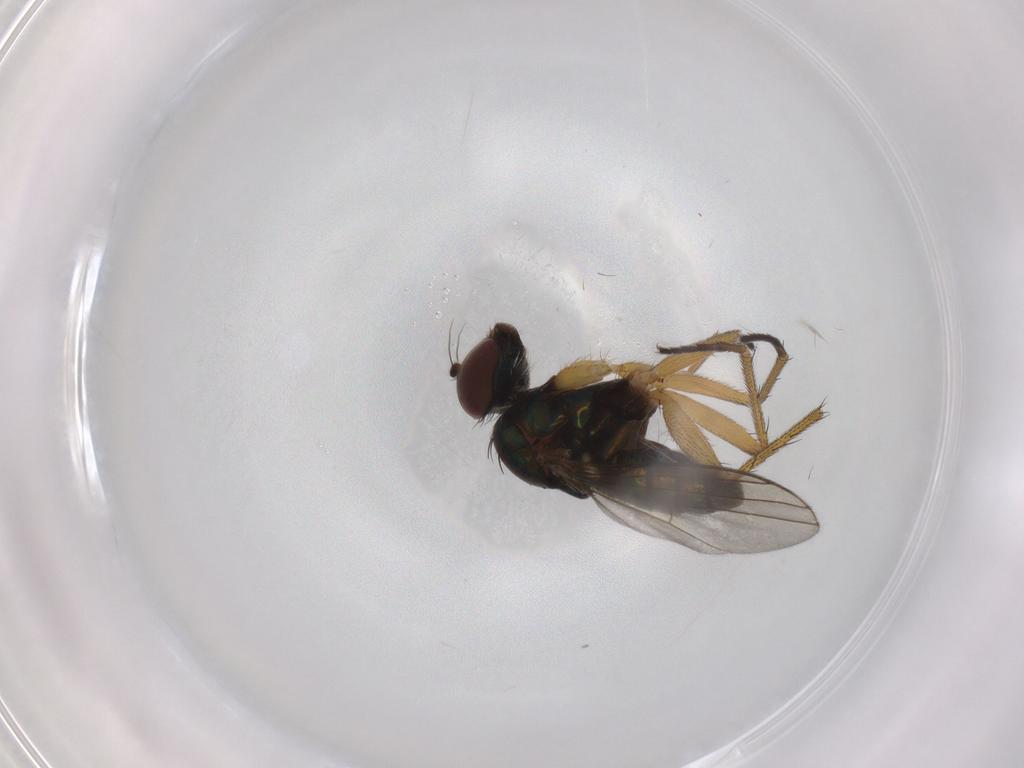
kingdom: Animalia
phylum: Arthropoda
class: Insecta
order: Diptera
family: Dolichopodidae
